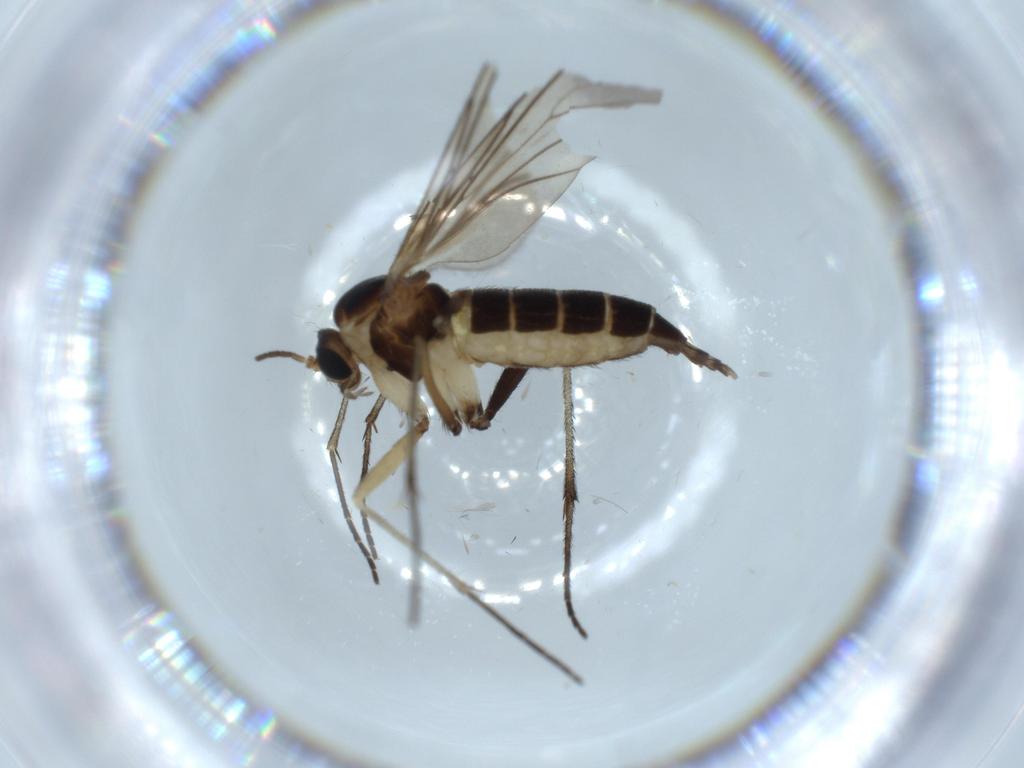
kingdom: Animalia
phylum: Arthropoda
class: Insecta
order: Diptera
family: Sciaridae
